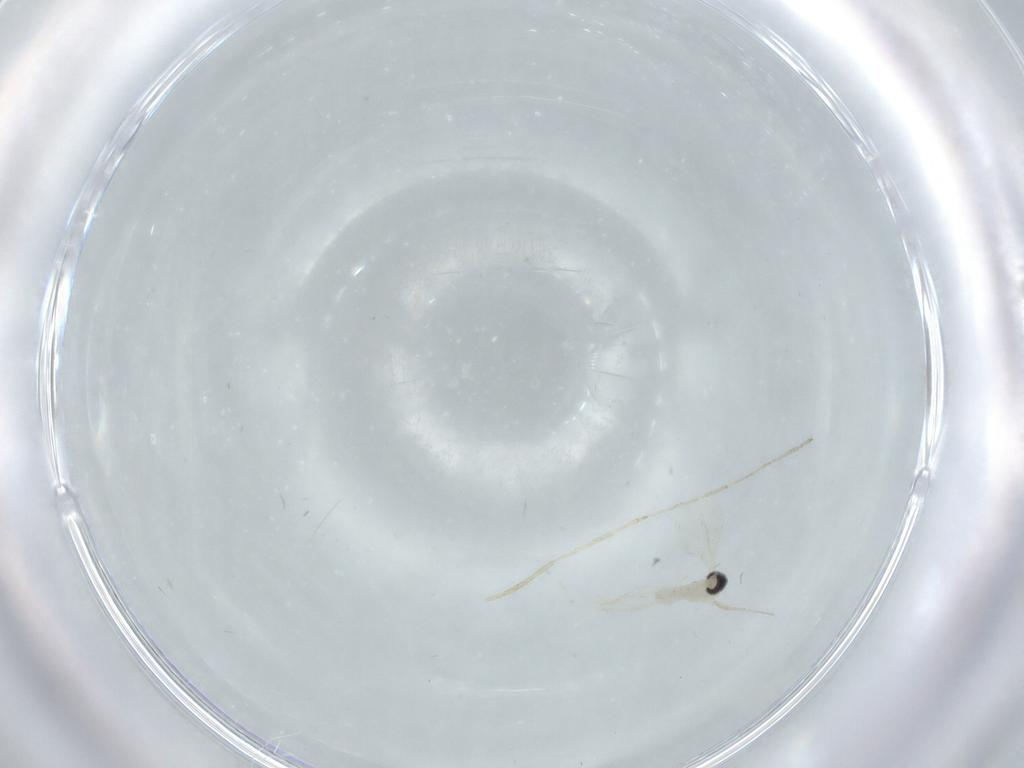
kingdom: Animalia
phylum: Arthropoda
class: Insecta
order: Diptera
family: Cecidomyiidae
